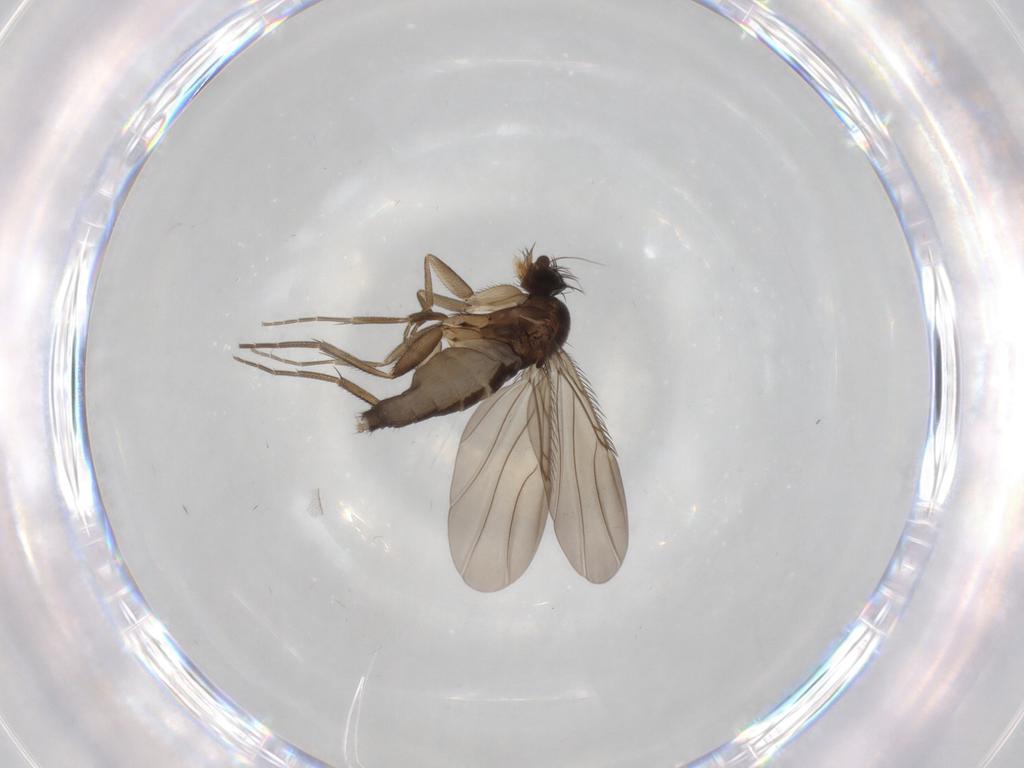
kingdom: Animalia
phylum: Arthropoda
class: Insecta
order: Diptera
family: Phoridae
